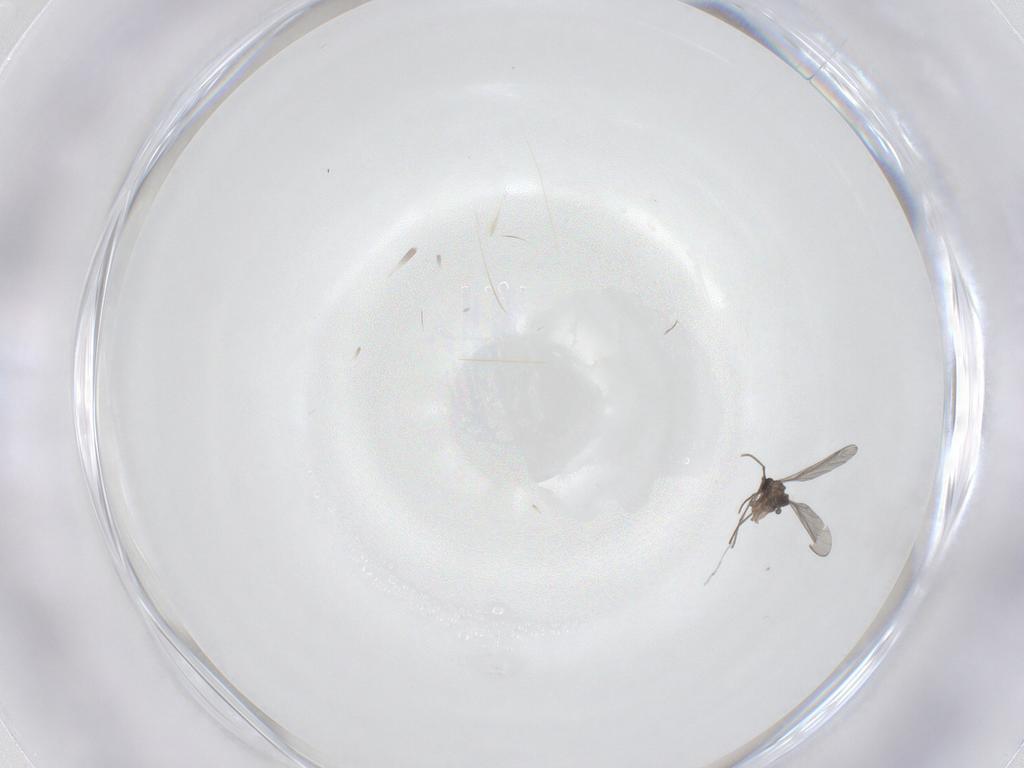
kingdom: Animalia
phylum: Arthropoda
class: Insecta
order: Diptera
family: Sciaridae
